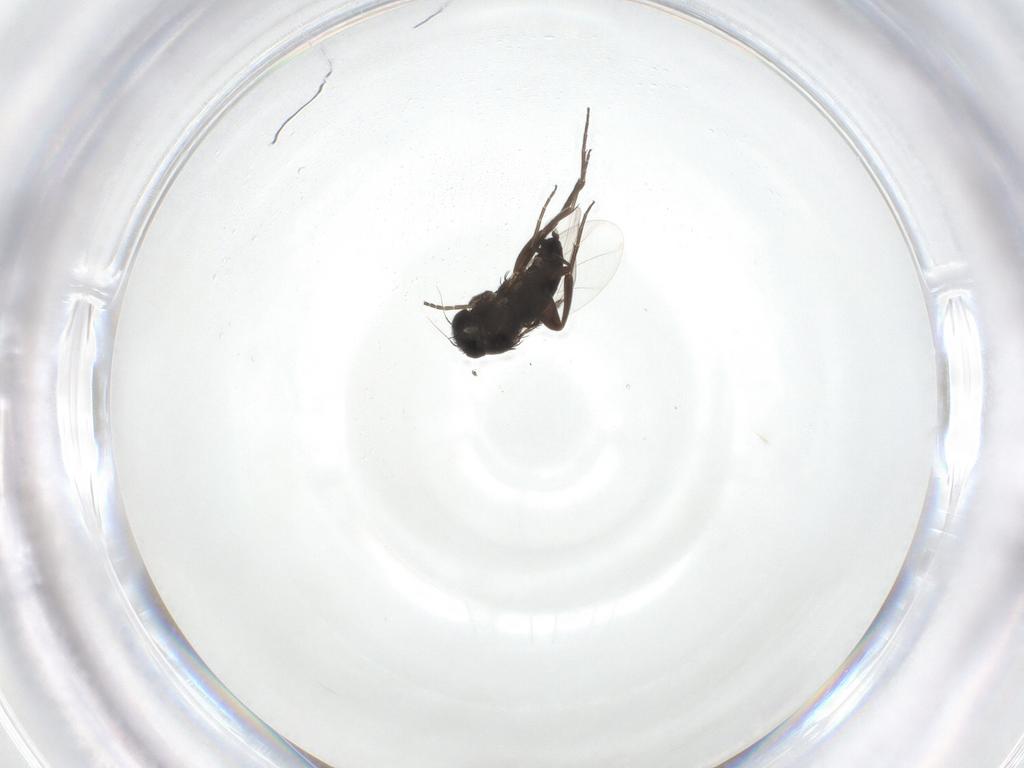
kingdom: Animalia
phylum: Arthropoda
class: Insecta
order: Diptera
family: Phoridae
